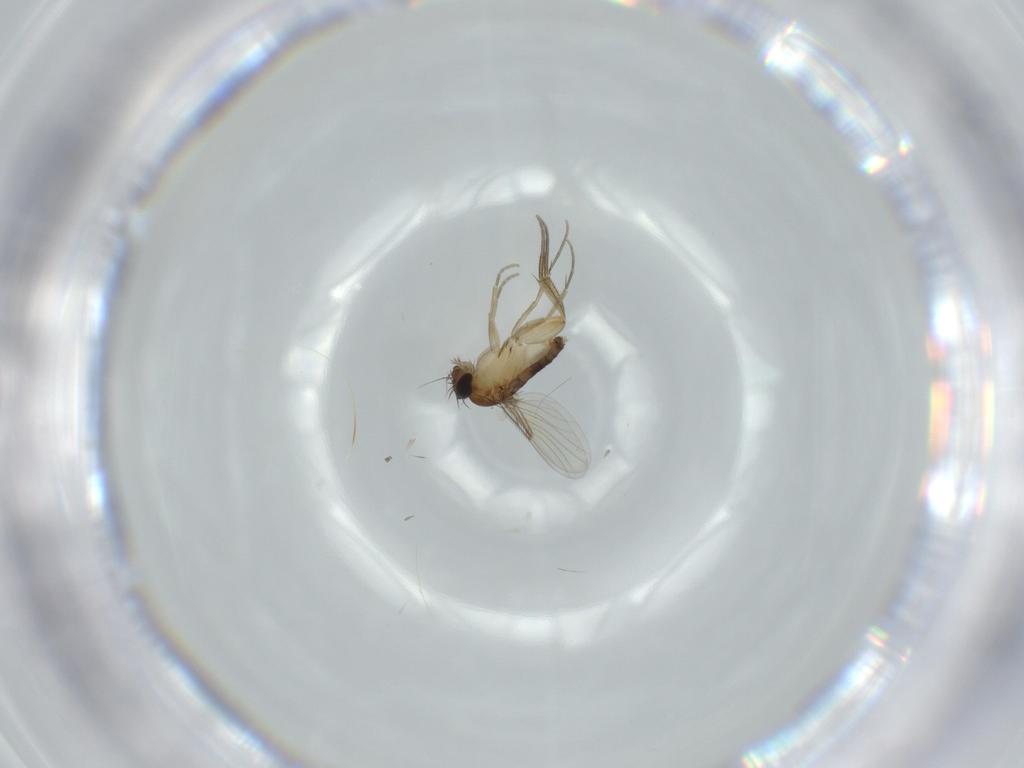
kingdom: Animalia
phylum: Arthropoda
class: Insecta
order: Diptera
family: Phoridae
